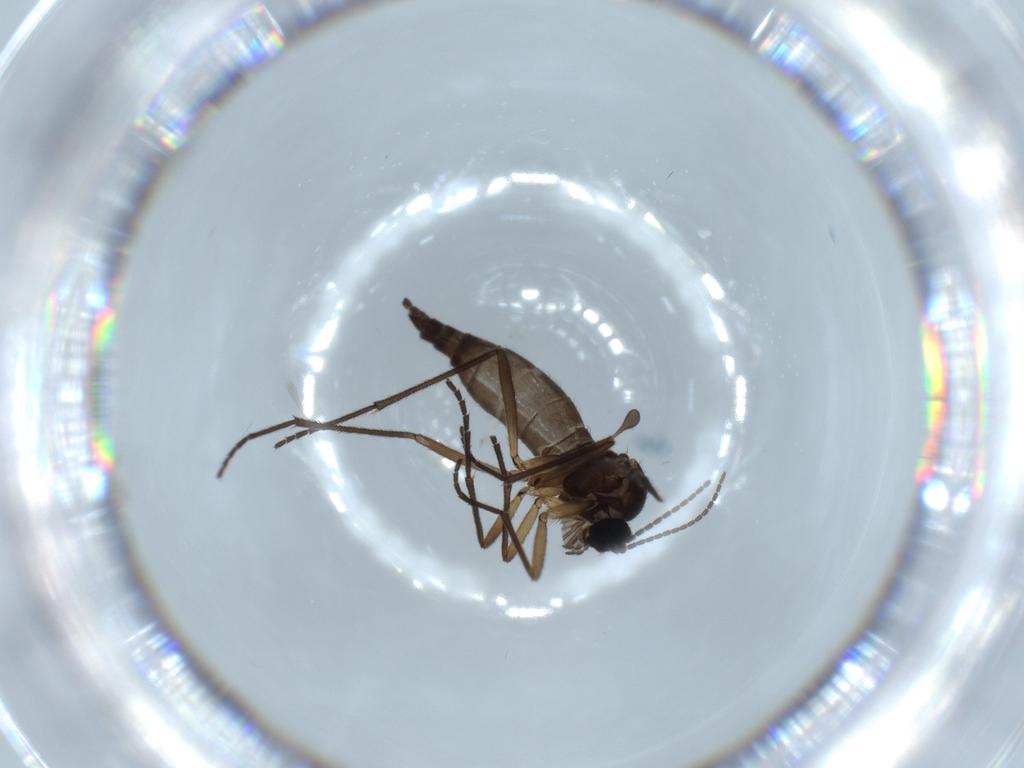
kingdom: Animalia
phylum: Arthropoda
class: Insecta
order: Diptera
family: Sciaridae
